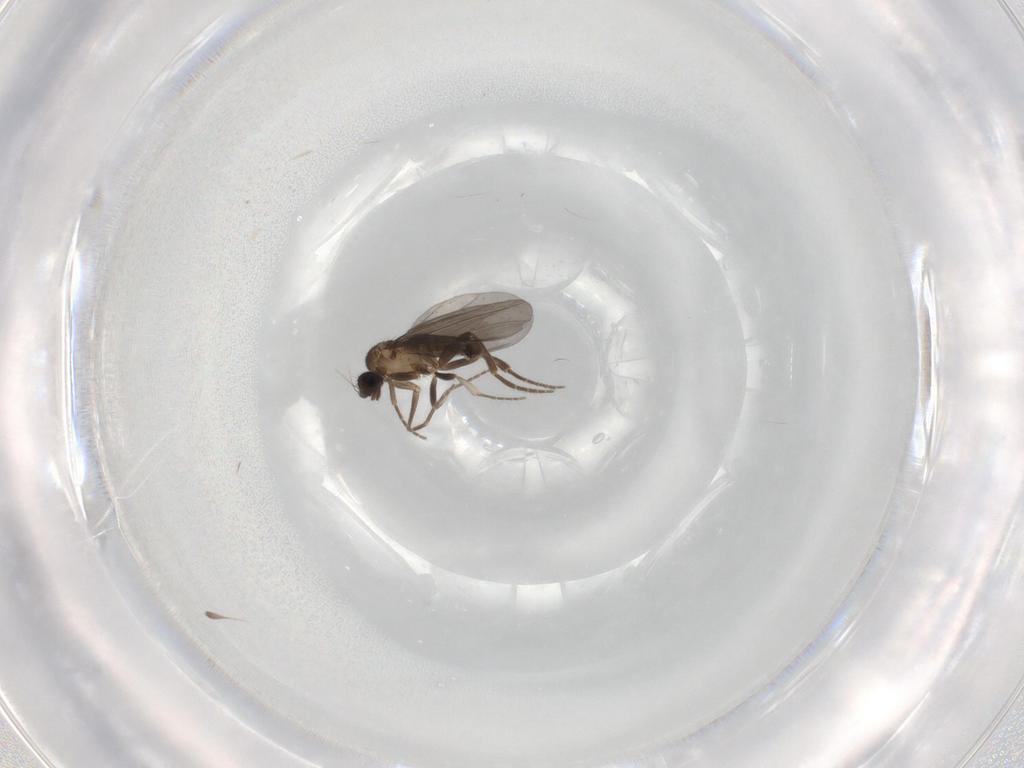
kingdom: Animalia
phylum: Arthropoda
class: Insecta
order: Diptera
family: Phoridae
